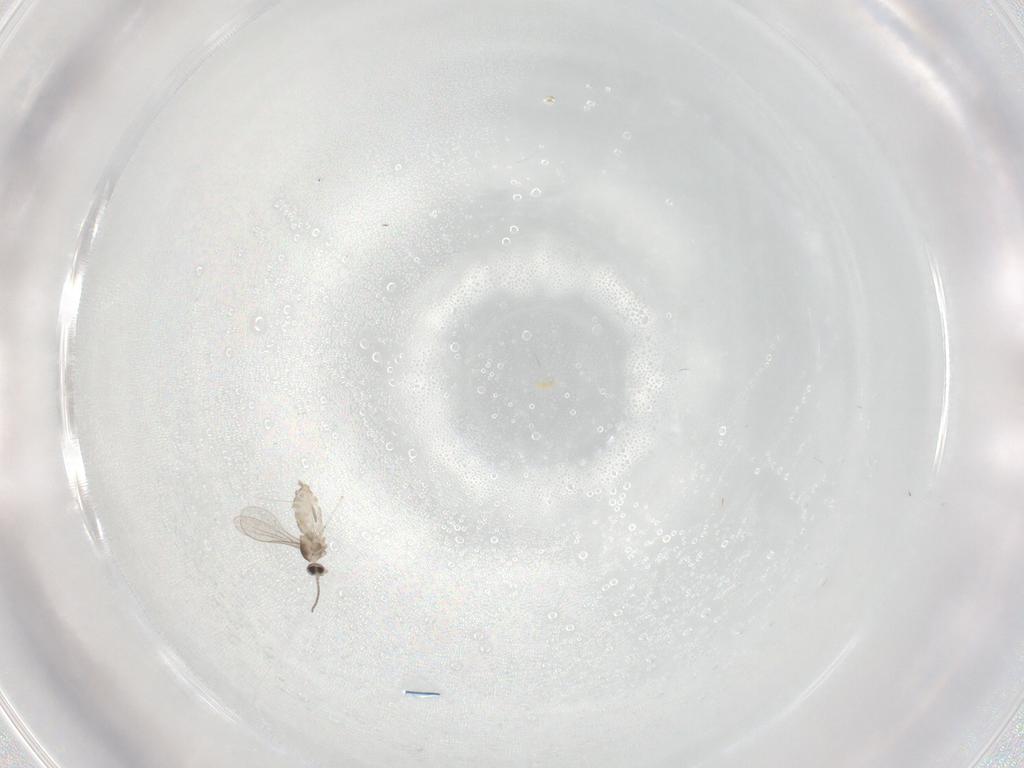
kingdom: Animalia
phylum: Arthropoda
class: Insecta
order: Diptera
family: Cecidomyiidae
